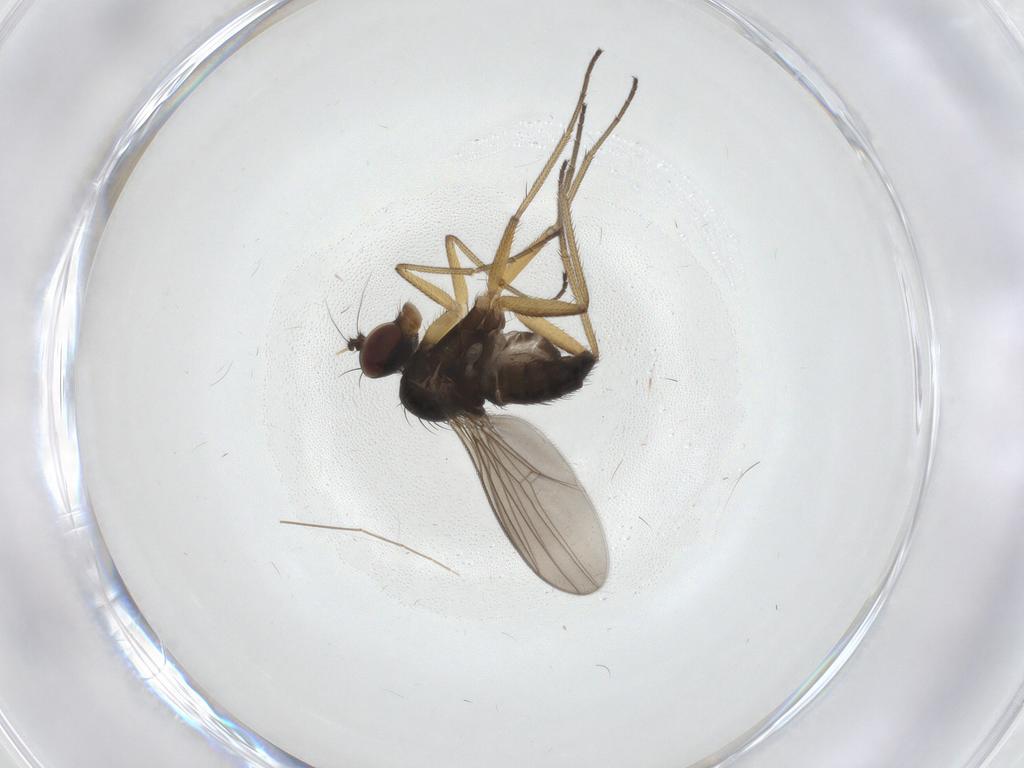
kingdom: Animalia
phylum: Arthropoda
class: Insecta
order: Diptera
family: Dolichopodidae
